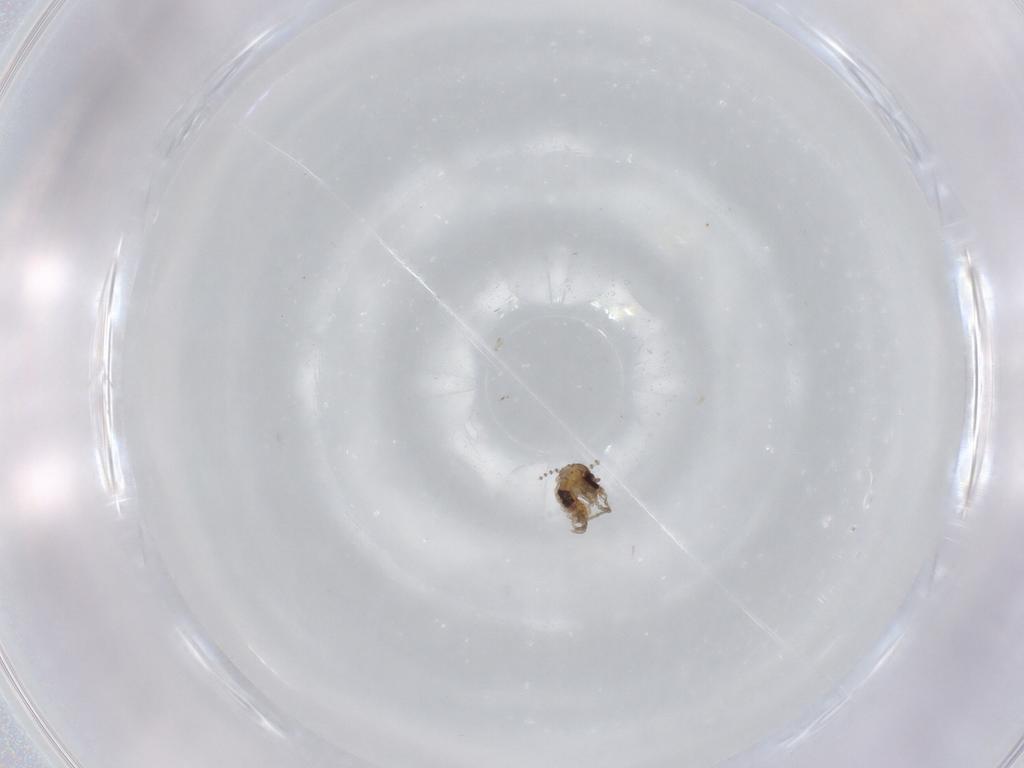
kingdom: Animalia
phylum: Arthropoda
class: Insecta
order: Diptera
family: Psychodidae
